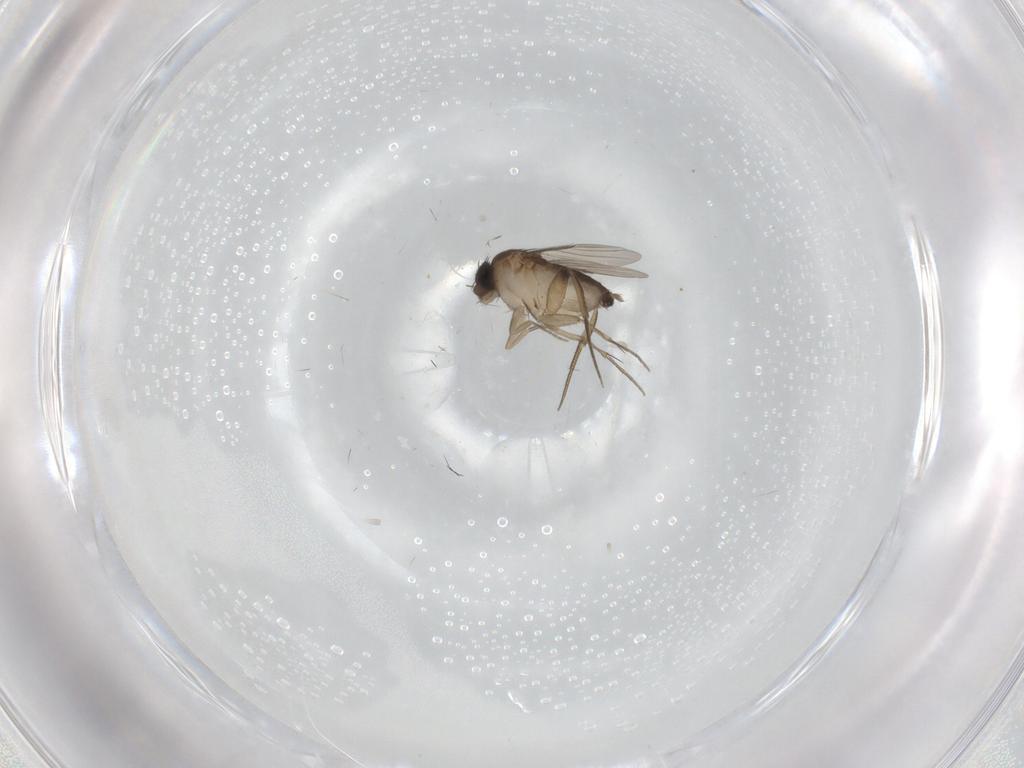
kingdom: Animalia
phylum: Arthropoda
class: Insecta
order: Diptera
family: Phoridae
